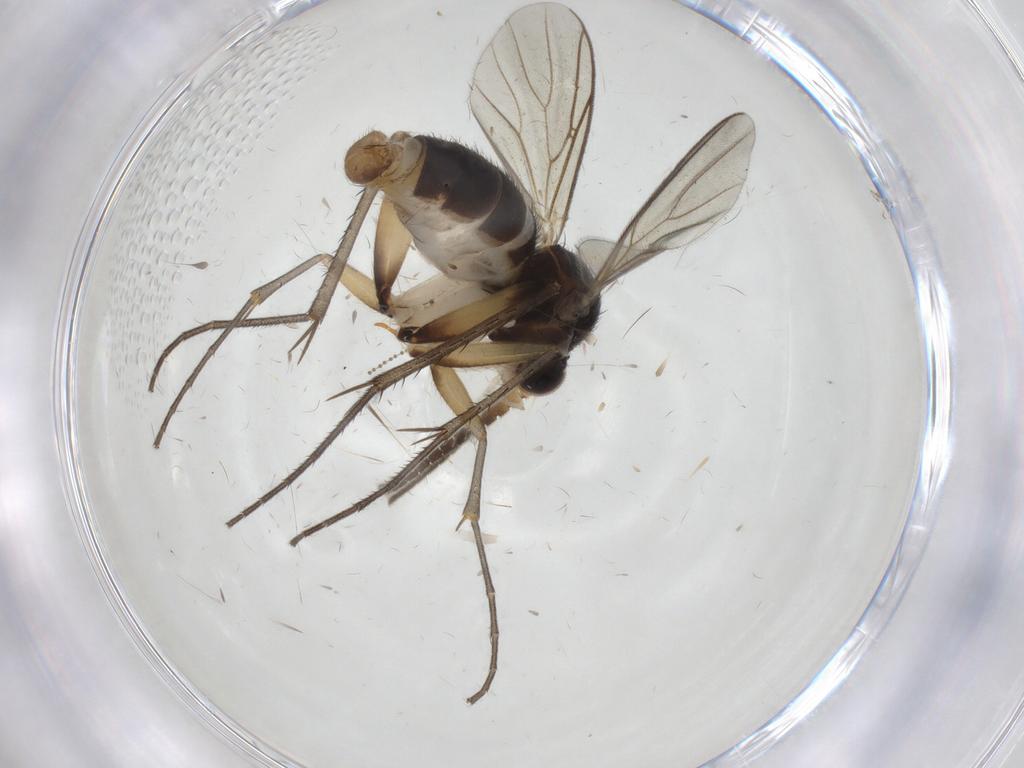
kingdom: Animalia
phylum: Arthropoda
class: Insecta
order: Diptera
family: Mycetophilidae
